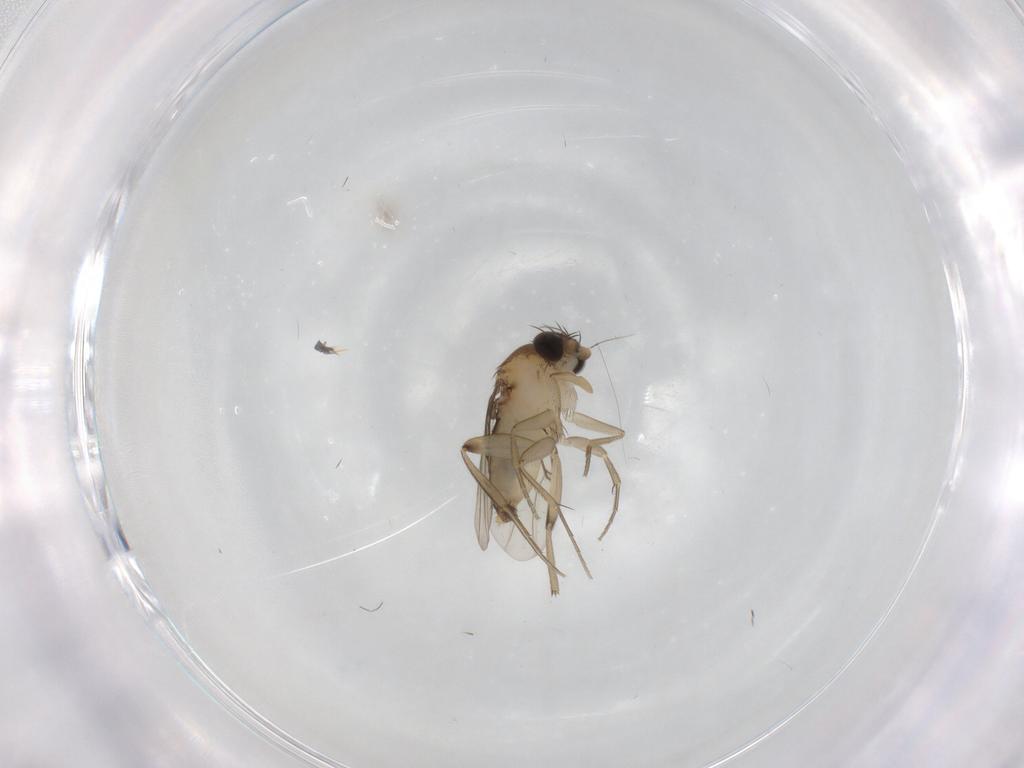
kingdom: Animalia
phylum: Arthropoda
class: Insecta
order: Diptera
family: Phoridae
